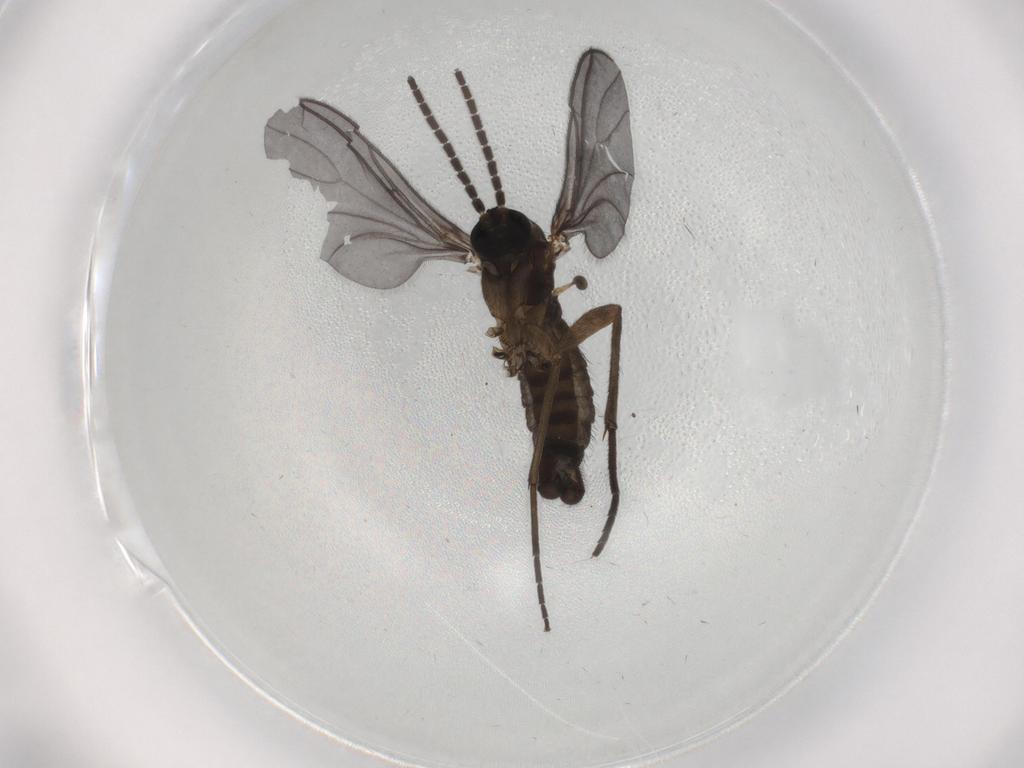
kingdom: Animalia
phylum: Arthropoda
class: Insecta
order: Diptera
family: Sciaridae
